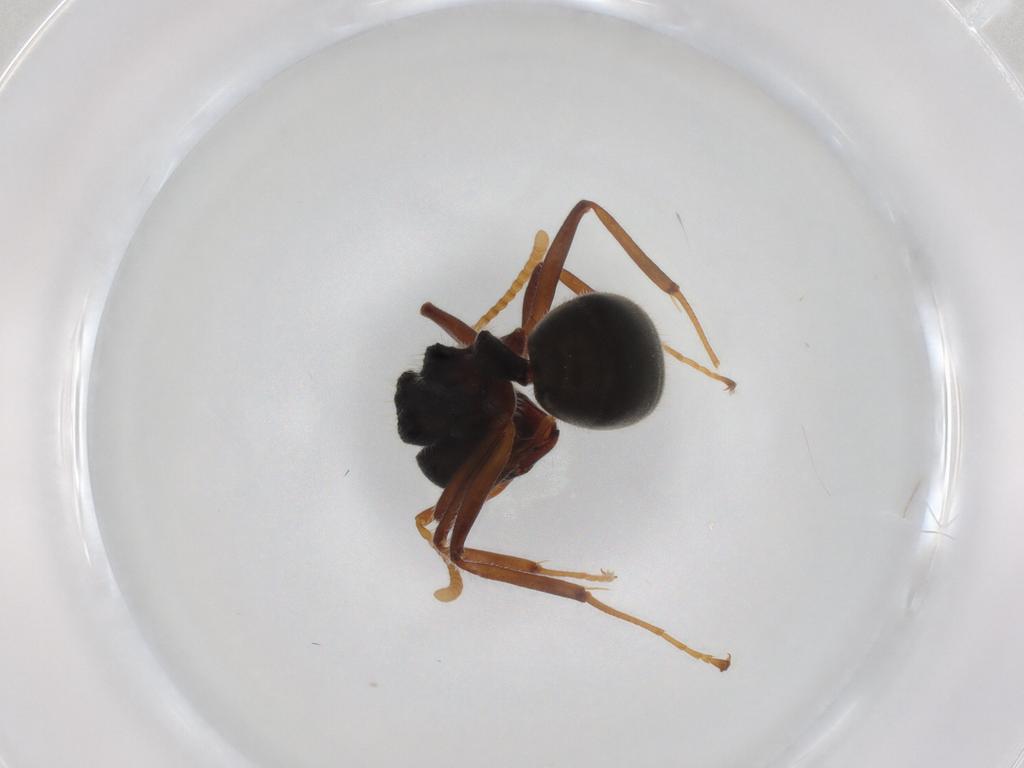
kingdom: Animalia
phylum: Arthropoda
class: Insecta
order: Hymenoptera
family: Formicidae
